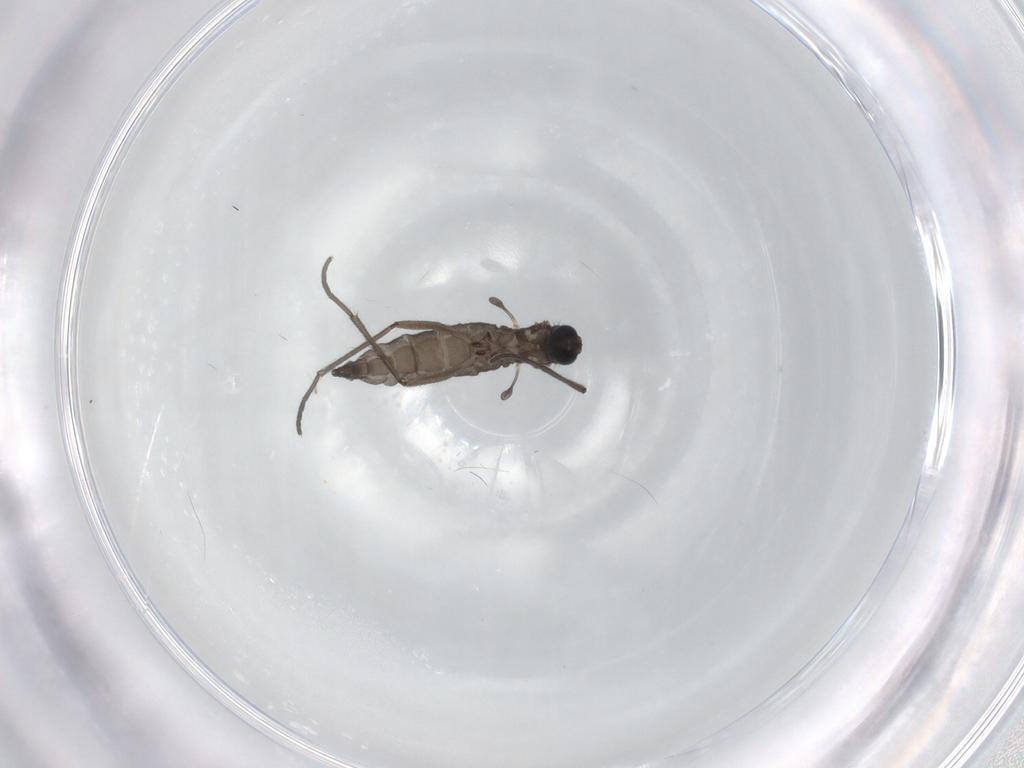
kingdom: Animalia
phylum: Arthropoda
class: Insecta
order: Diptera
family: Sciaridae
